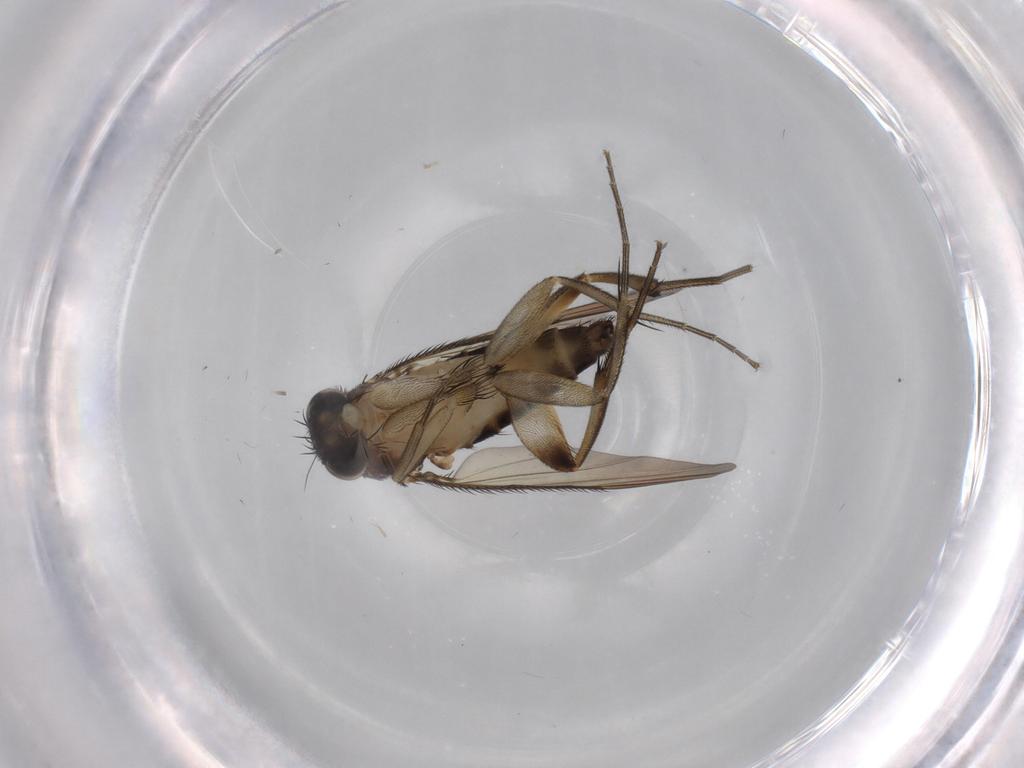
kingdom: Animalia
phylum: Arthropoda
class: Insecta
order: Diptera
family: Phoridae
